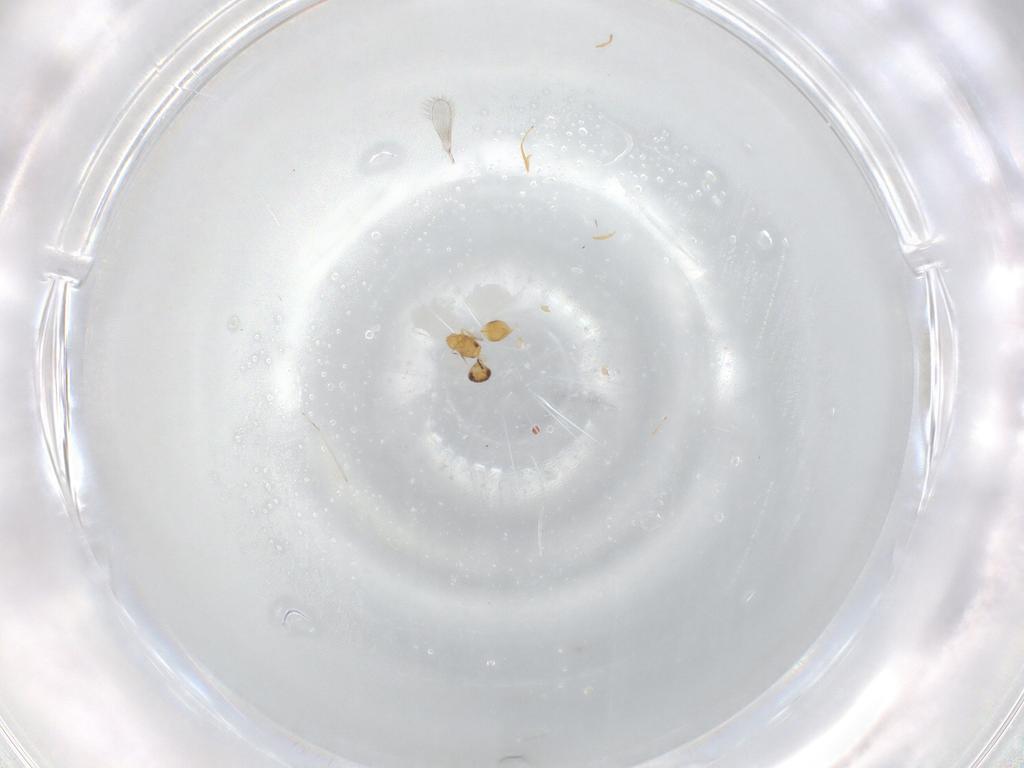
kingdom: Animalia
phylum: Arthropoda
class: Insecta
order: Hymenoptera
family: Mymaridae
